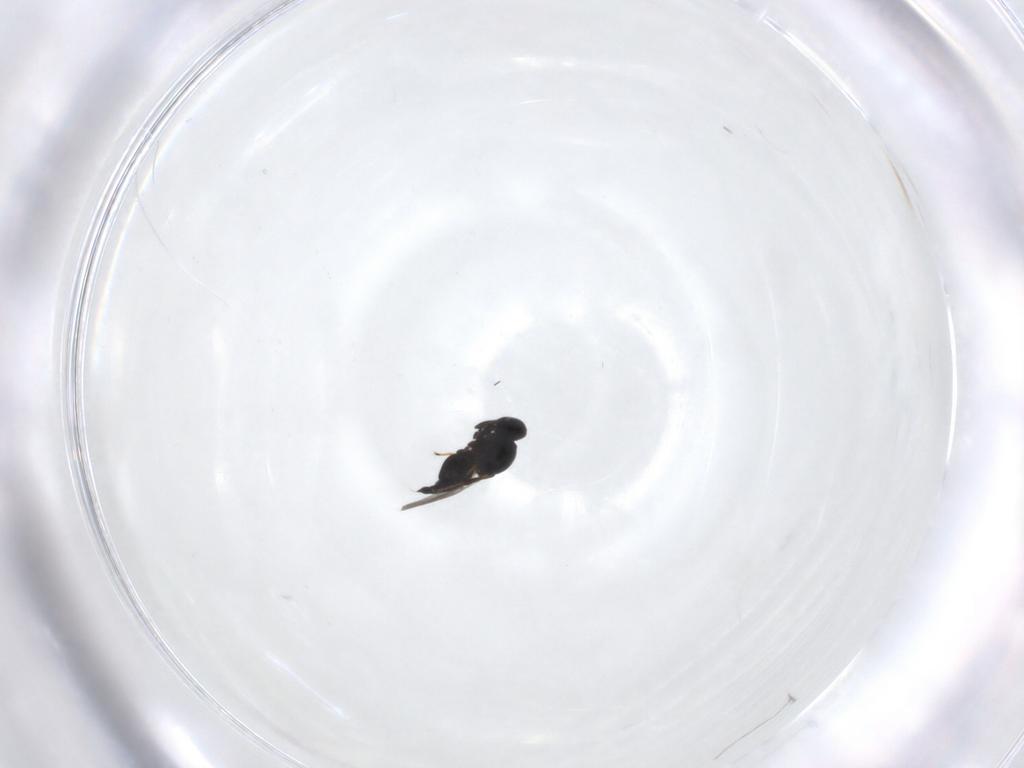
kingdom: Animalia
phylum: Arthropoda
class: Insecta
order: Hymenoptera
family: Platygastridae
